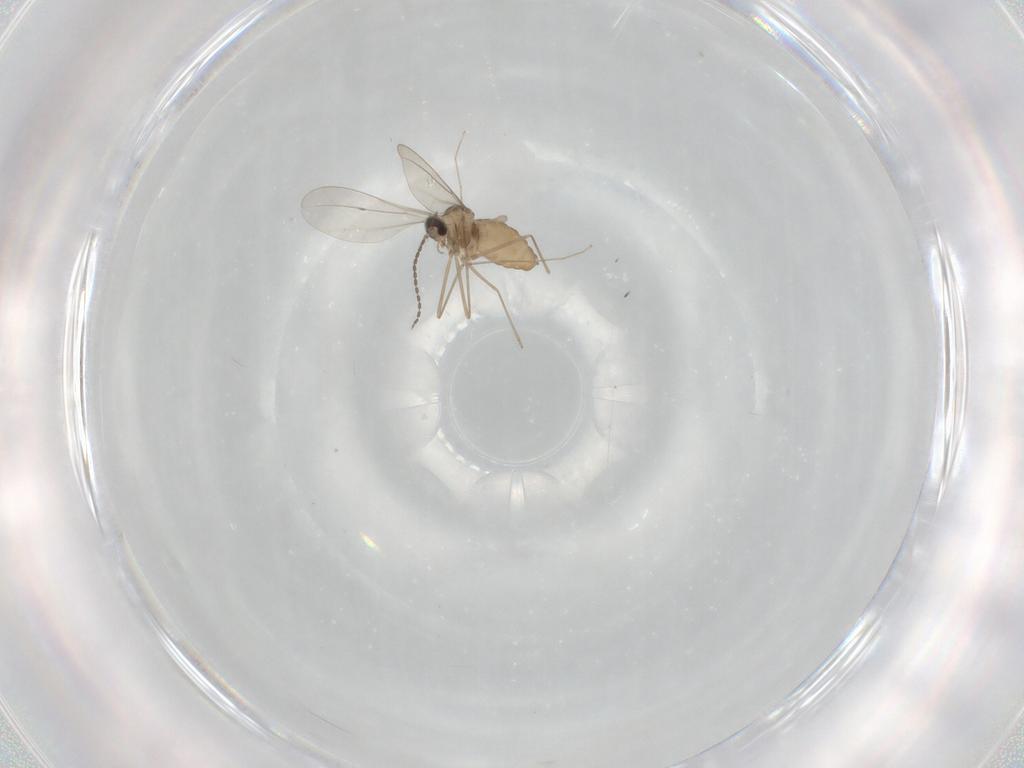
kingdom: Animalia
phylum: Arthropoda
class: Insecta
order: Diptera
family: Cecidomyiidae
